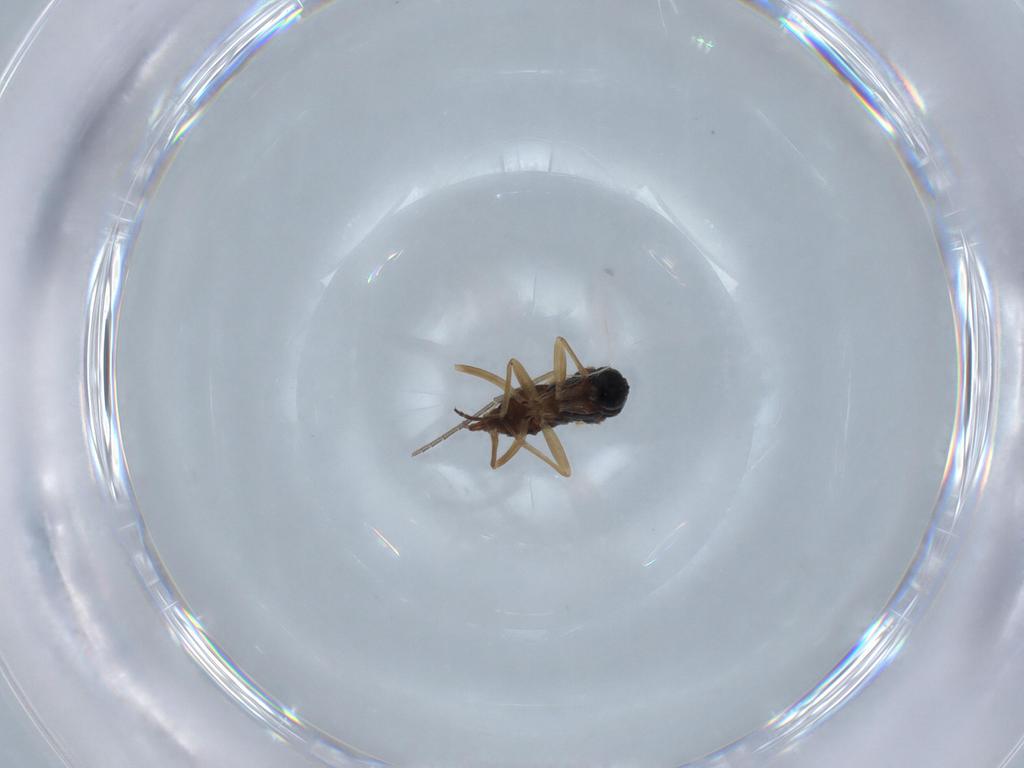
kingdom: Animalia
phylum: Arthropoda
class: Insecta
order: Diptera
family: Sciaridae
